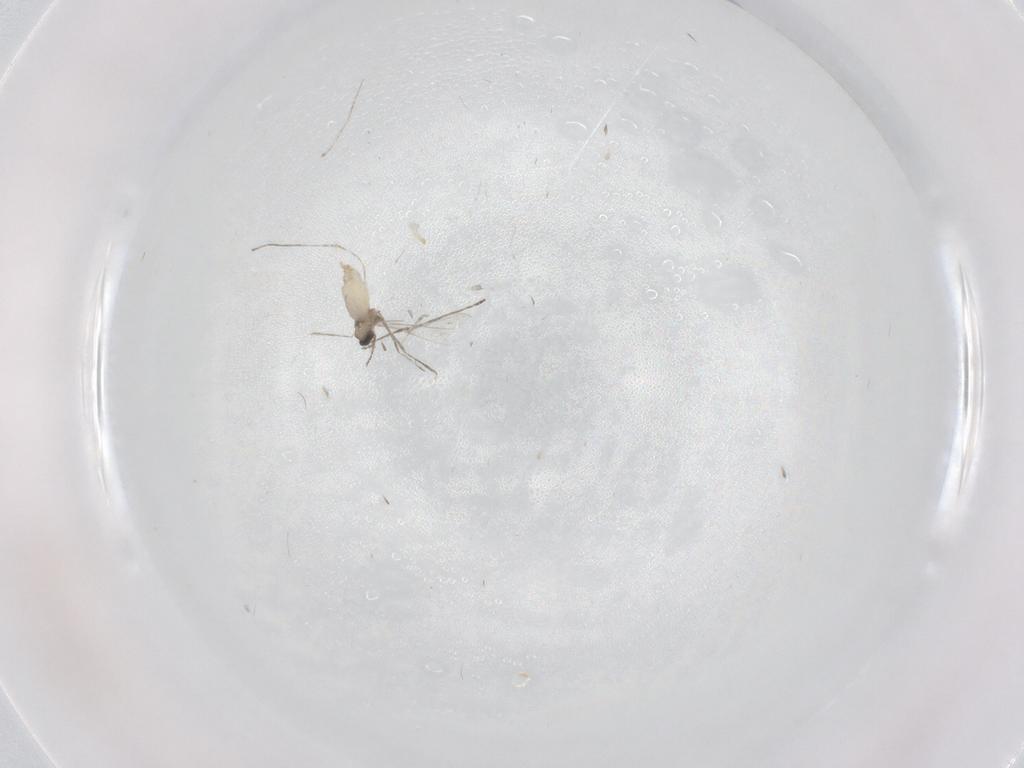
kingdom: Animalia
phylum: Arthropoda
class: Insecta
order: Diptera
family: Cecidomyiidae
